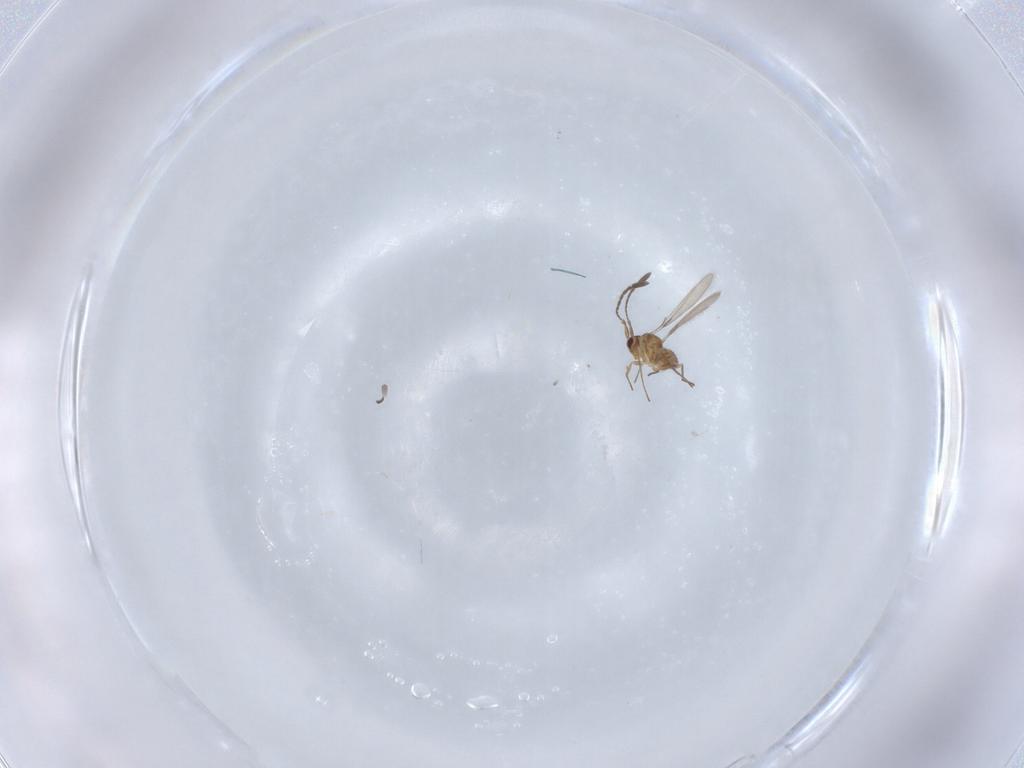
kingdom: Animalia
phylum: Arthropoda
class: Insecta
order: Hymenoptera
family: Mymaridae
